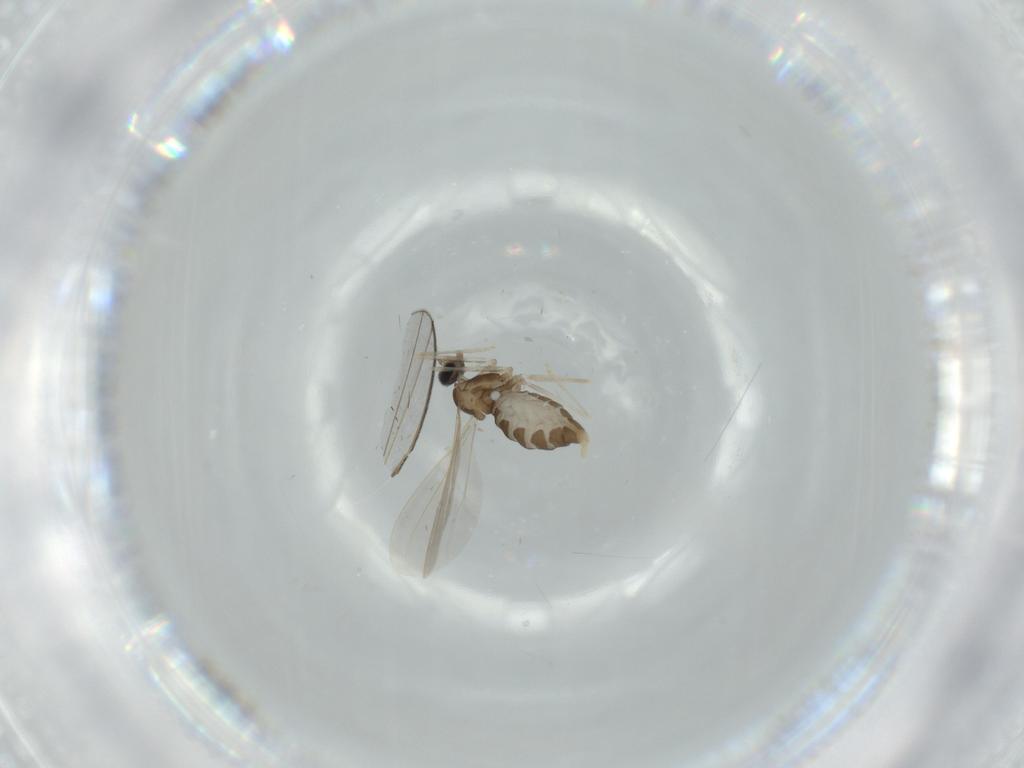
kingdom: Animalia
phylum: Arthropoda
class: Insecta
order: Diptera
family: Cecidomyiidae
